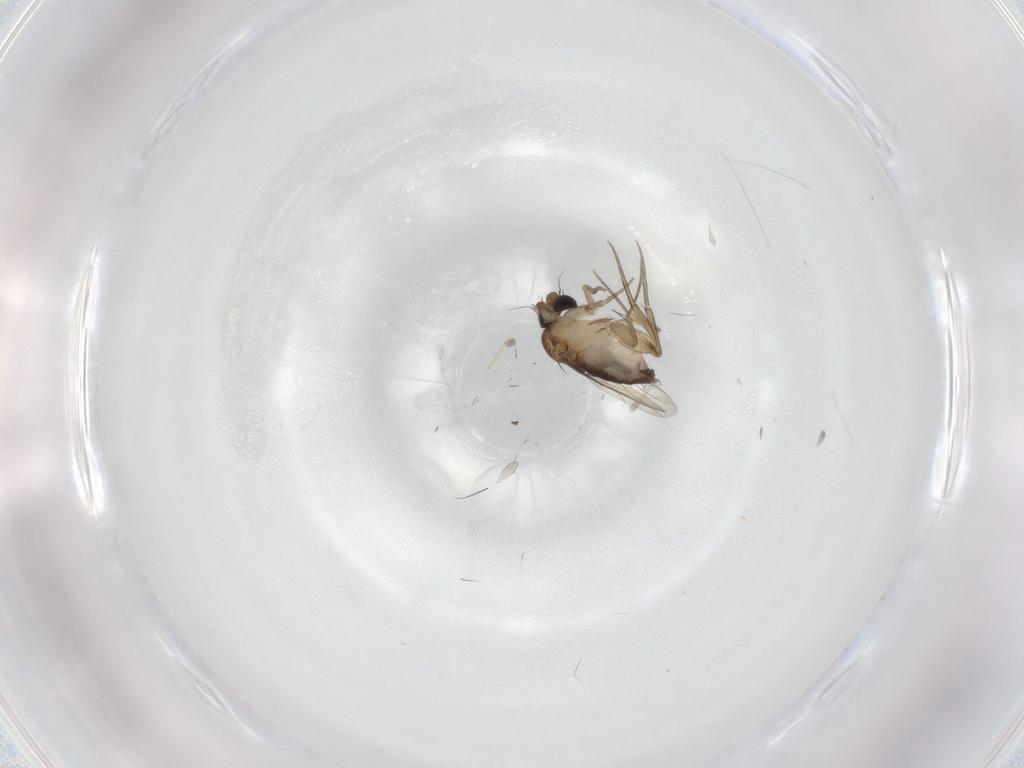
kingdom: Animalia
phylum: Arthropoda
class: Insecta
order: Diptera
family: Phoridae
